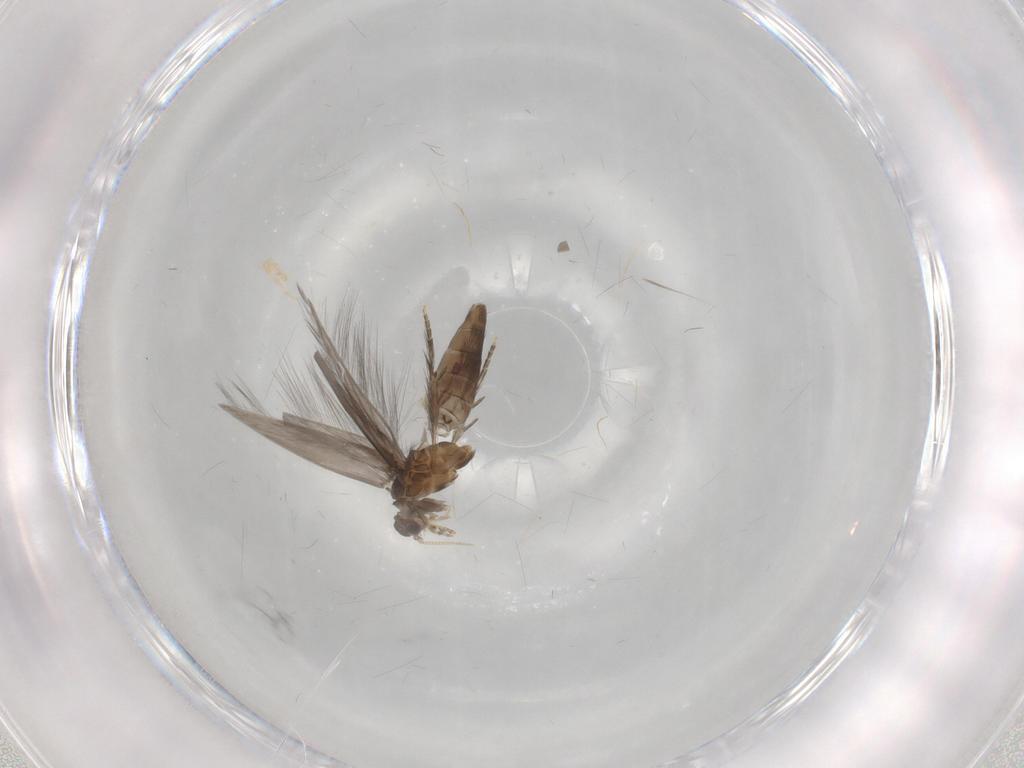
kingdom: Animalia
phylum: Arthropoda
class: Insecta
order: Trichoptera
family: Hydroptilidae
